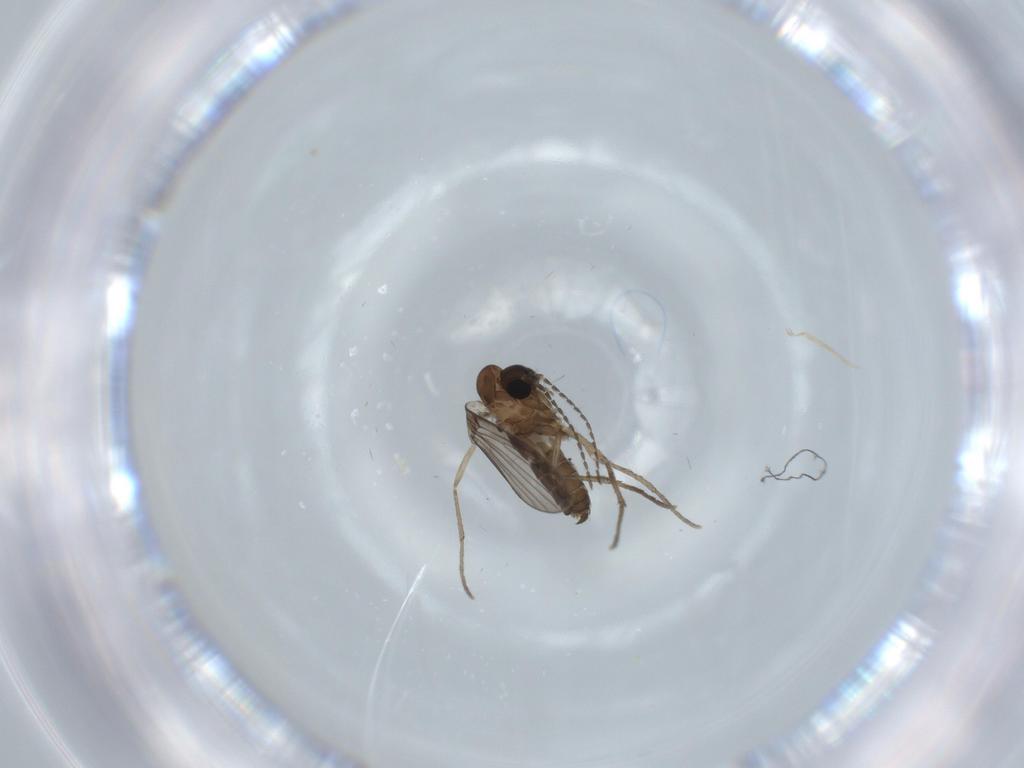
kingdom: Animalia
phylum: Arthropoda
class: Insecta
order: Diptera
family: Psychodidae
